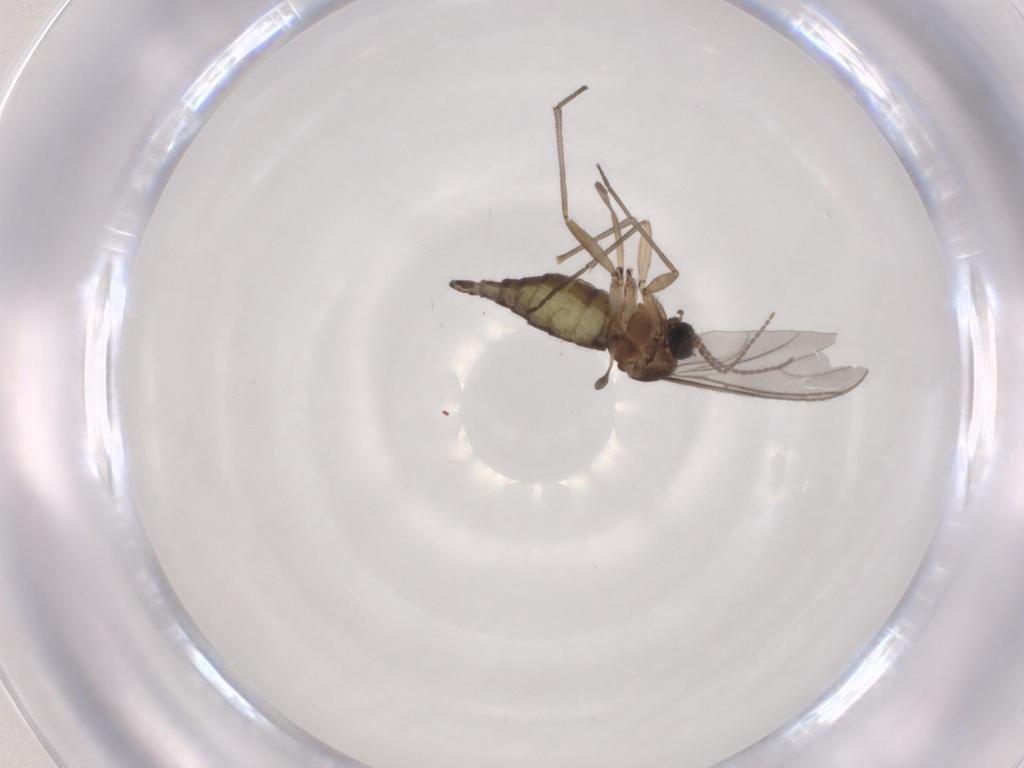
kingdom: Animalia
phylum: Arthropoda
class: Insecta
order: Diptera
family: Sciaridae
